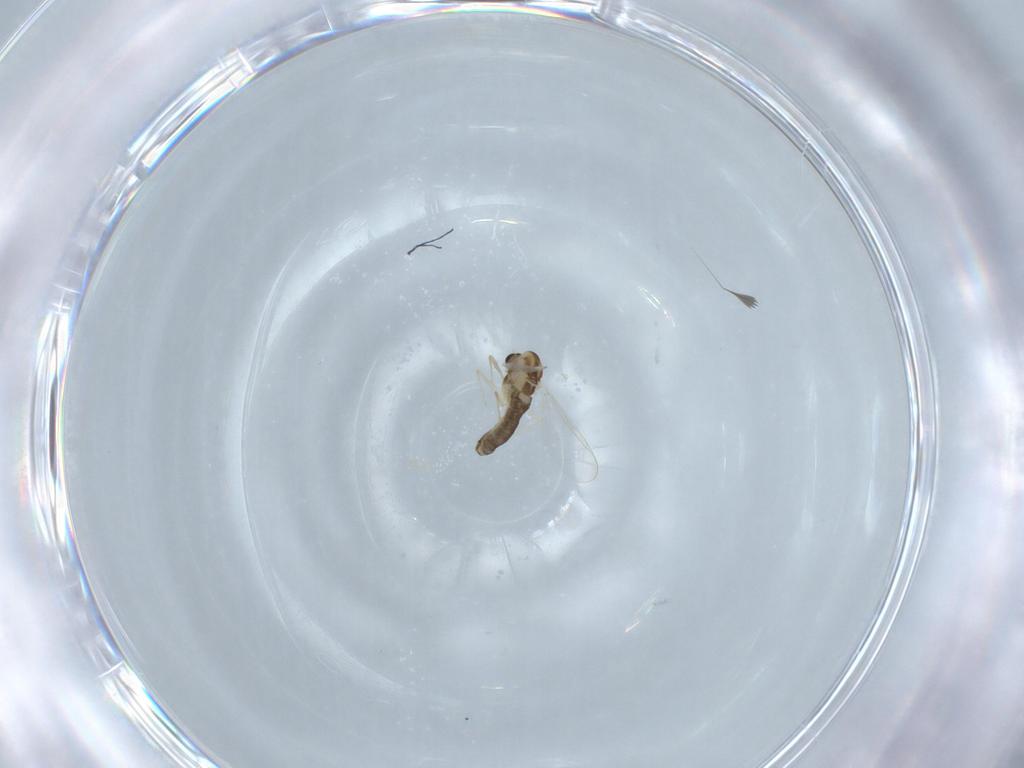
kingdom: Animalia
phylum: Arthropoda
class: Insecta
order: Diptera
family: Chironomidae
